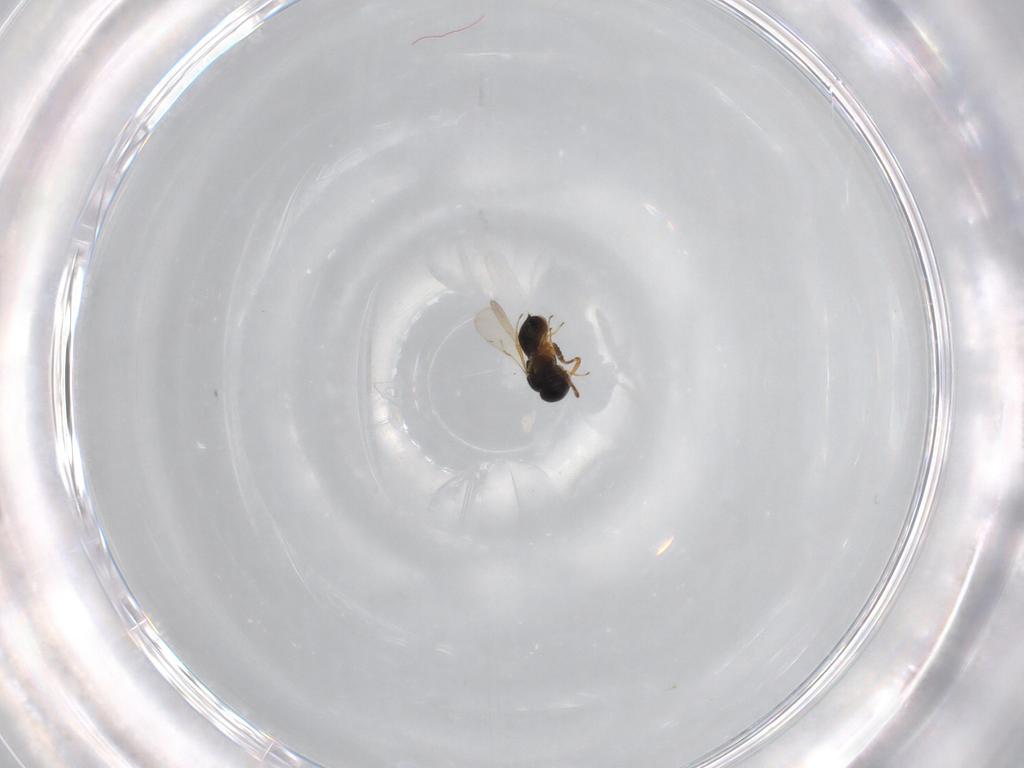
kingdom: Animalia
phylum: Arthropoda
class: Insecta
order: Hymenoptera
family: Scelionidae
